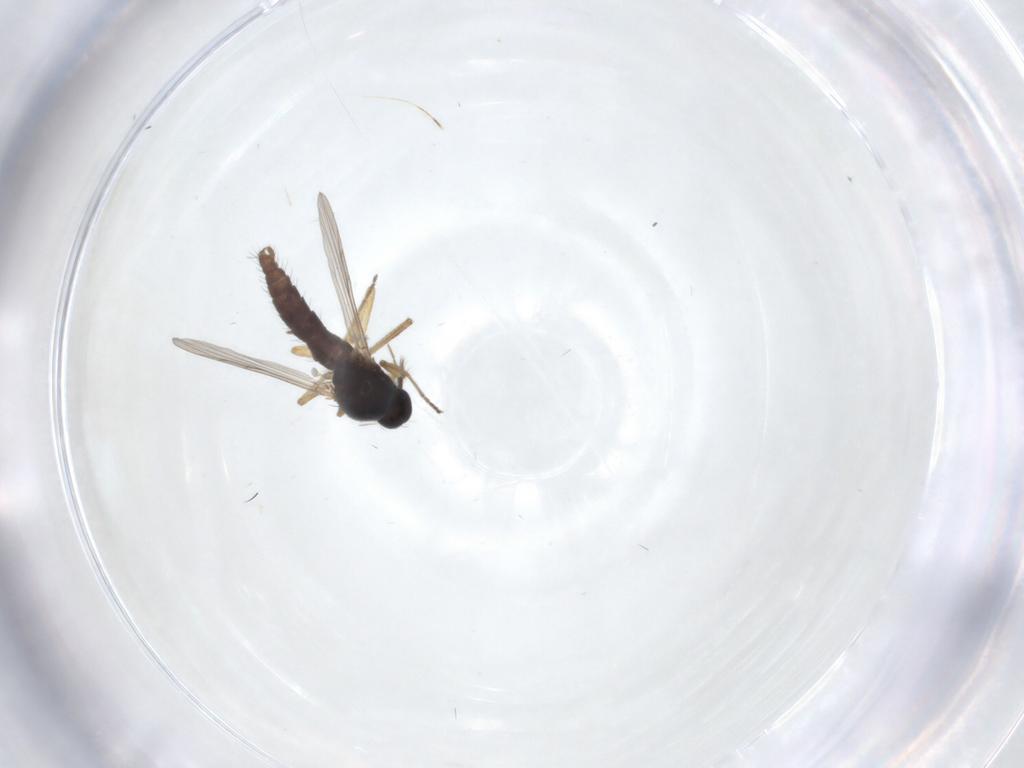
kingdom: Animalia
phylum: Arthropoda
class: Insecta
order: Diptera
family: Ceratopogonidae
